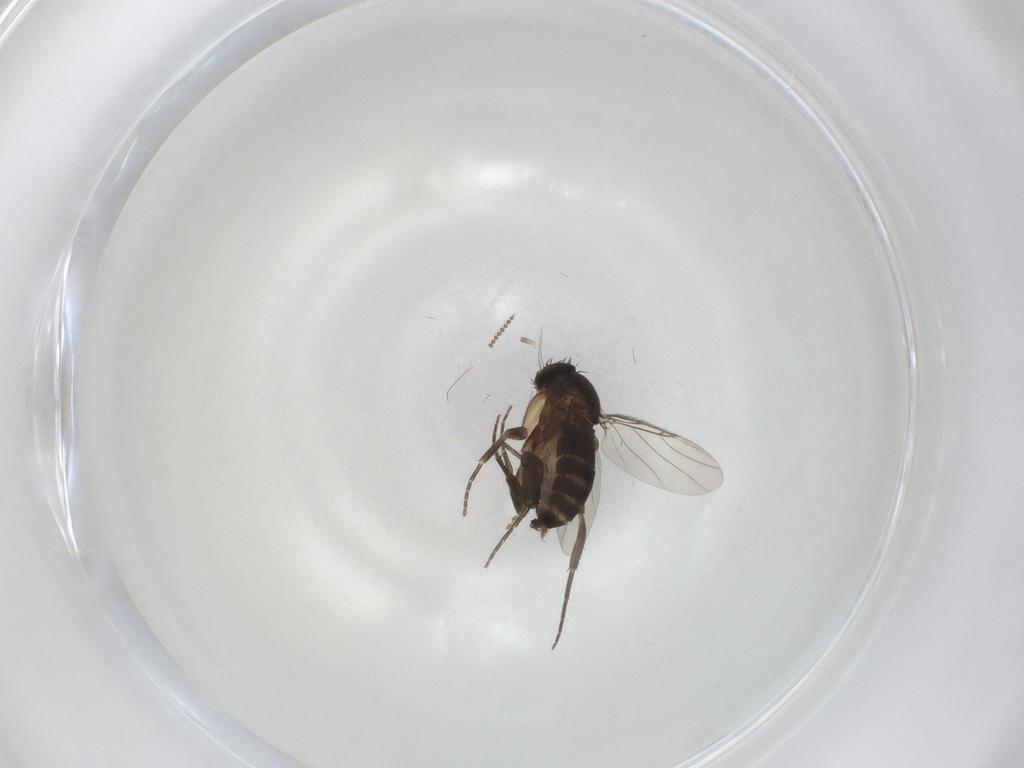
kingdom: Animalia
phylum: Arthropoda
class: Insecta
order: Diptera
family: Phoridae
